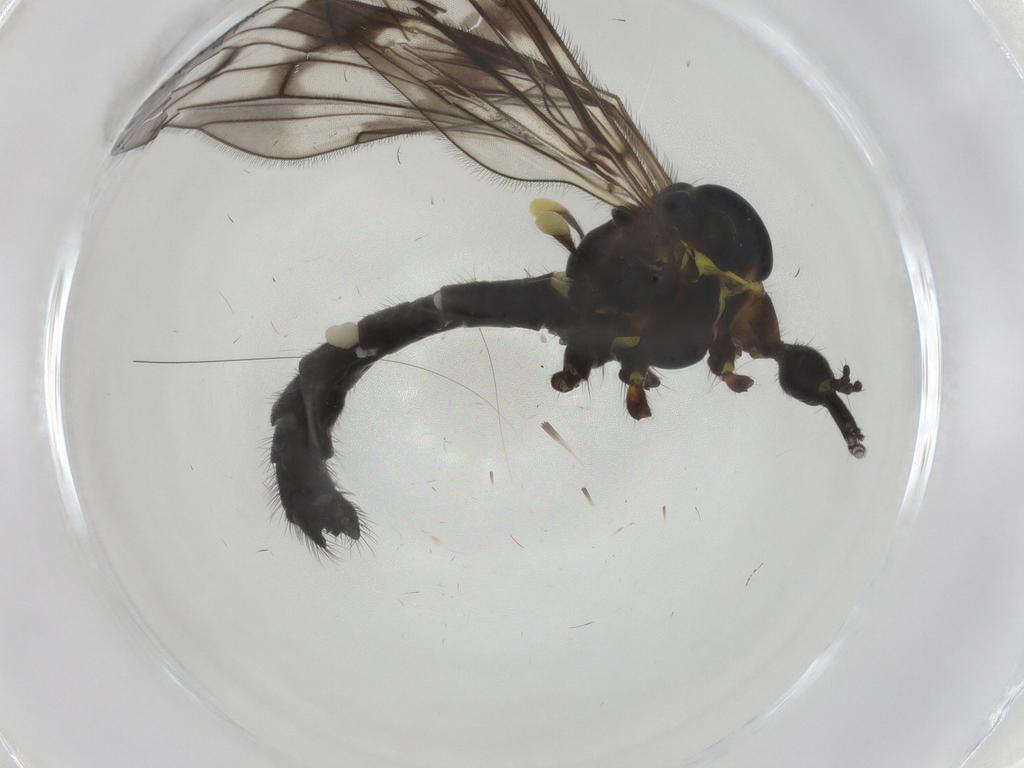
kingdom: Animalia
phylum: Arthropoda
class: Insecta
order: Diptera
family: Limoniidae
